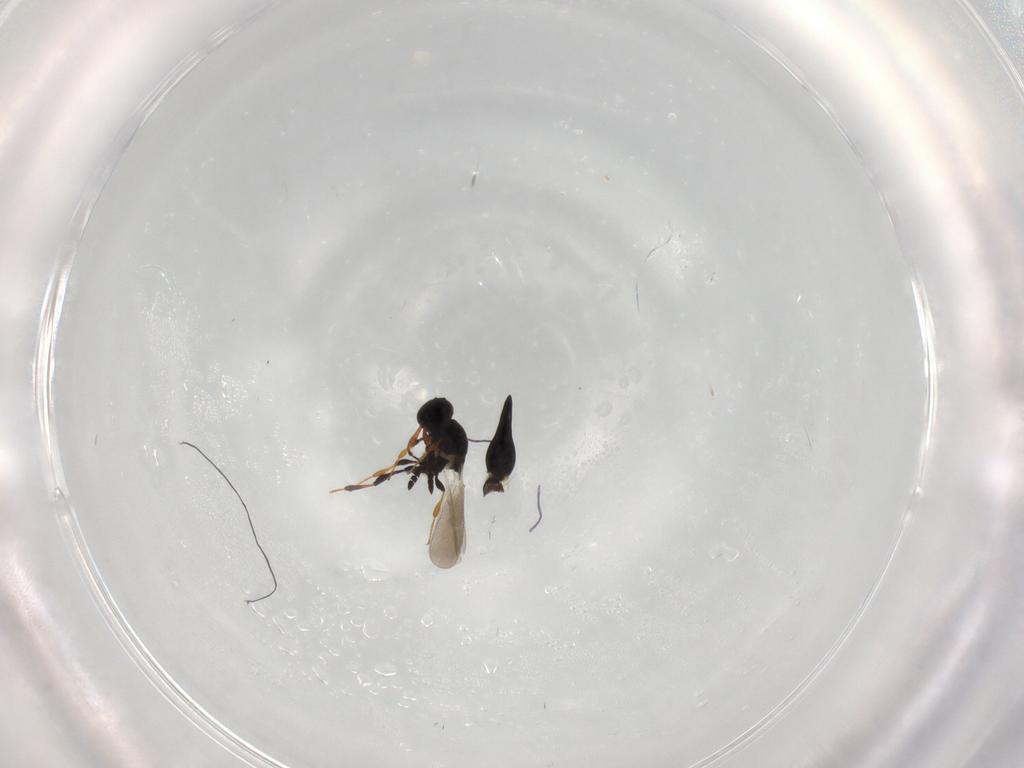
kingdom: Animalia
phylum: Arthropoda
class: Insecta
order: Hymenoptera
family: Platygastridae
